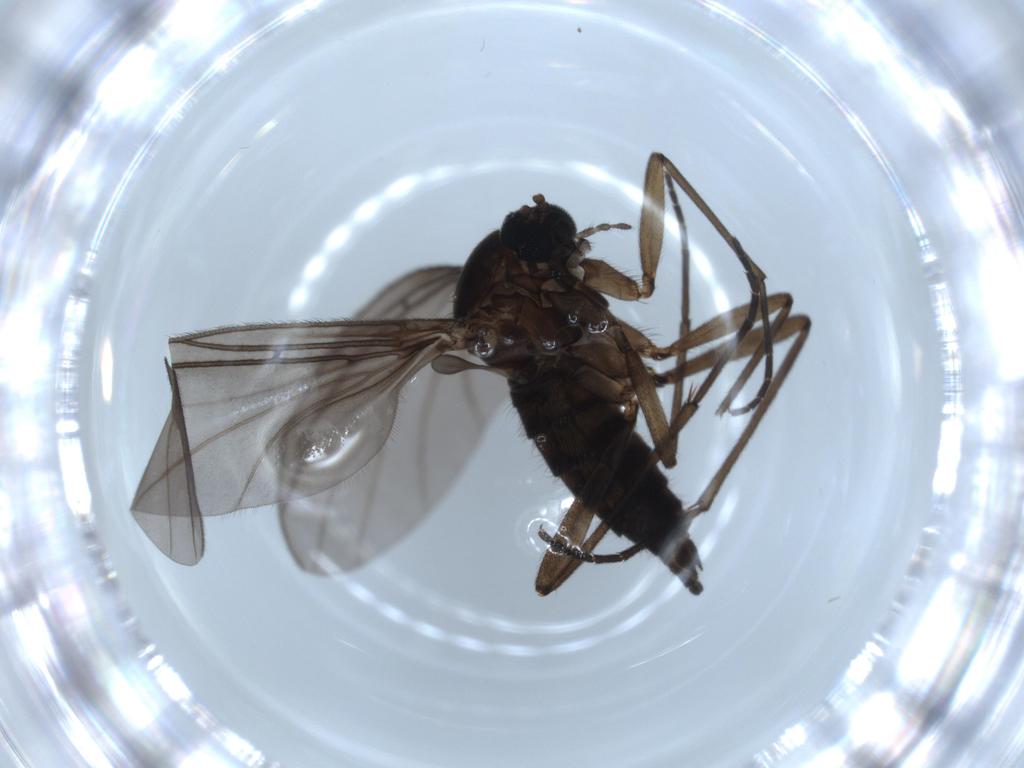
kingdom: Animalia
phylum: Arthropoda
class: Insecta
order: Diptera
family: Sciaridae
